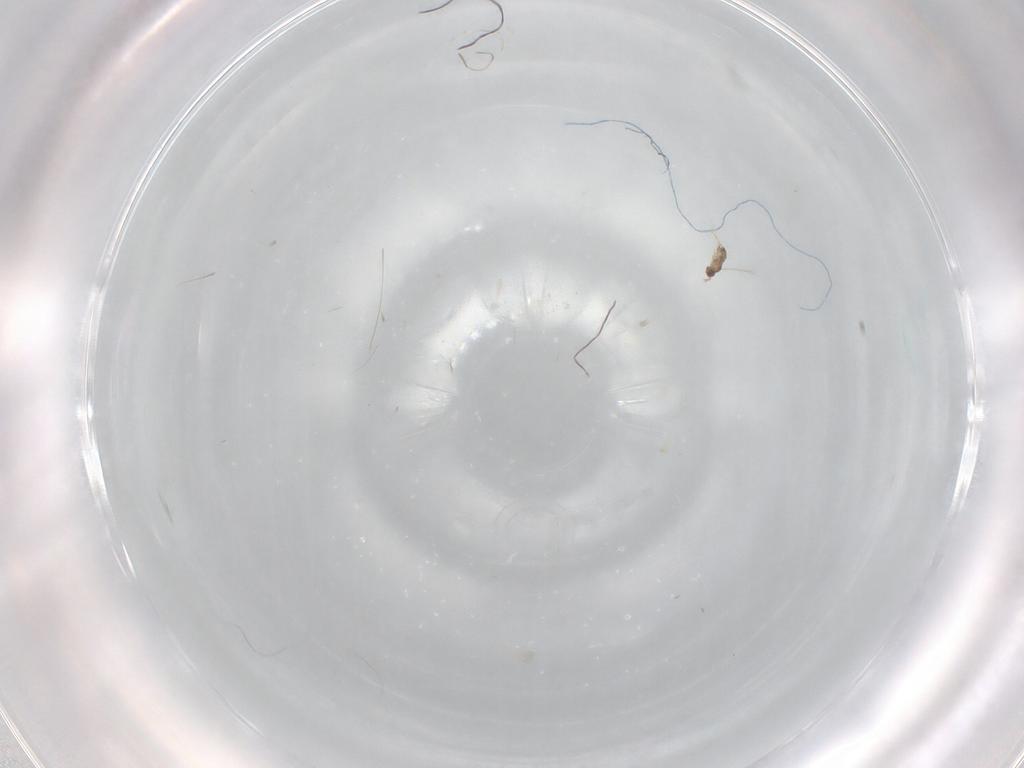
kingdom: Animalia
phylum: Arthropoda
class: Insecta
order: Hymenoptera
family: Mymaridae
